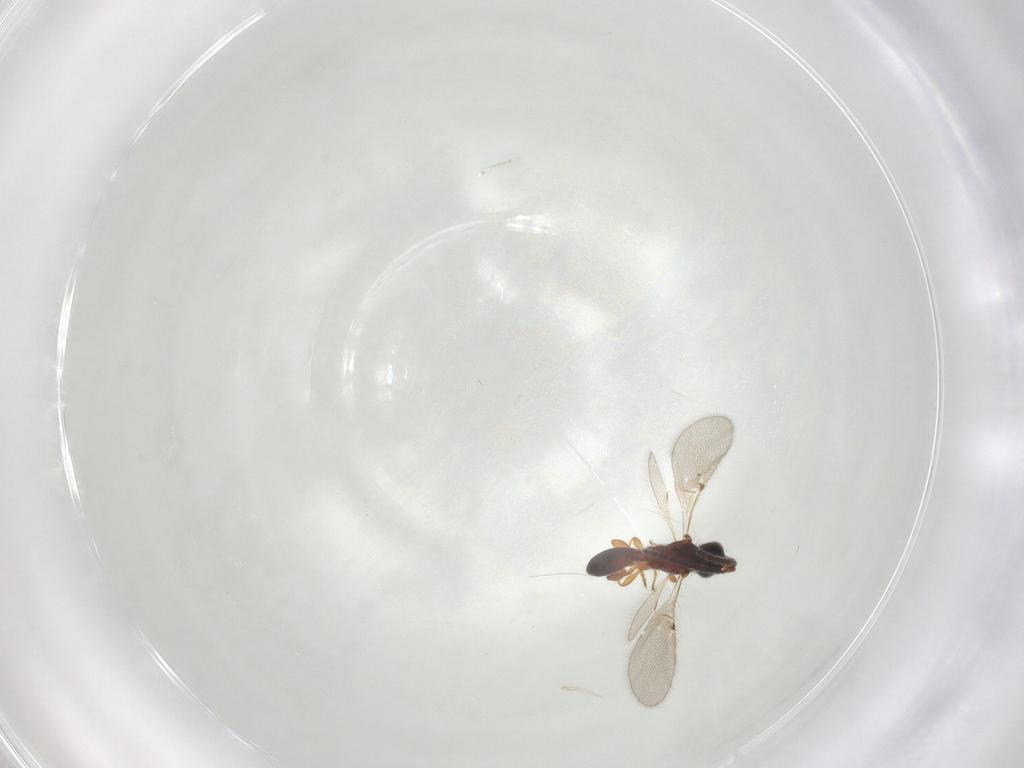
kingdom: Animalia
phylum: Arthropoda
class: Insecta
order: Hymenoptera
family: Diapriidae
